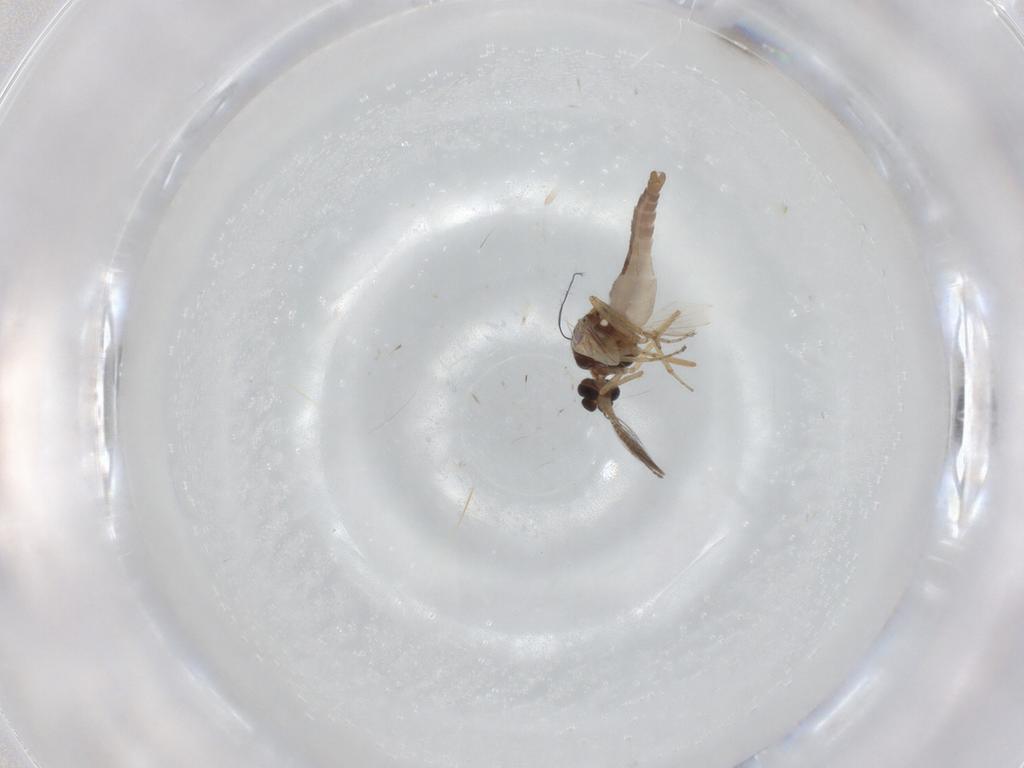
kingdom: Animalia
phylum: Arthropoda
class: Insecta
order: Diptera
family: Ceratopogonidae
